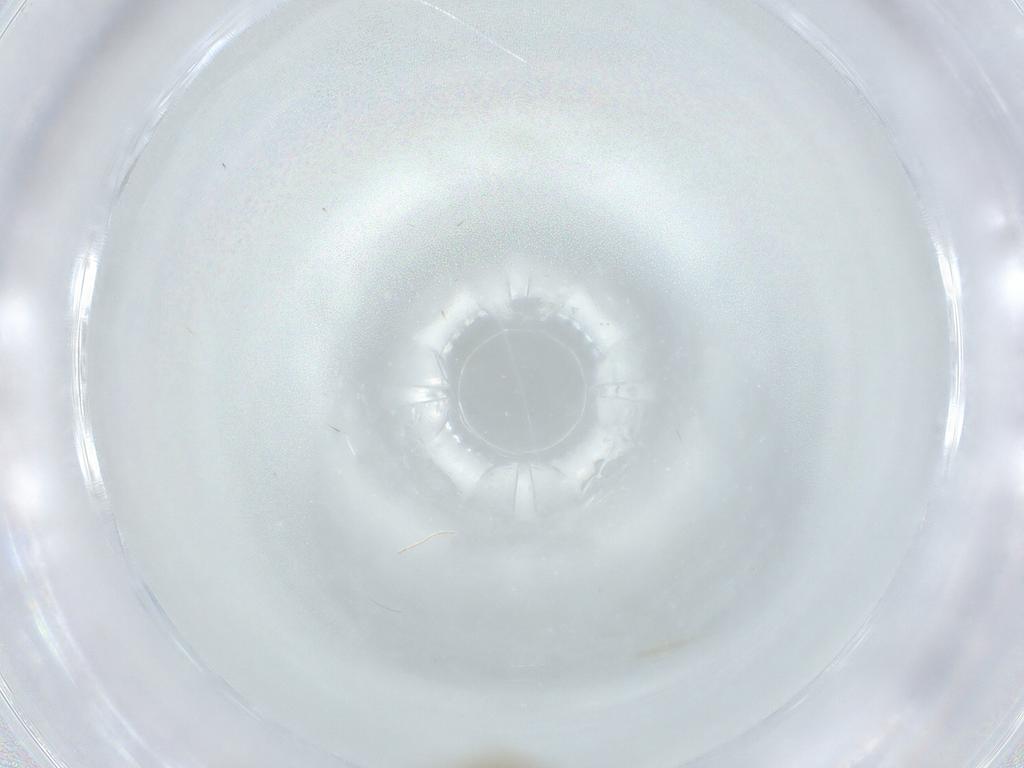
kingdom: Animalia
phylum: Arthropoda
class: Insecta
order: Diptera
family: Chironomidae
